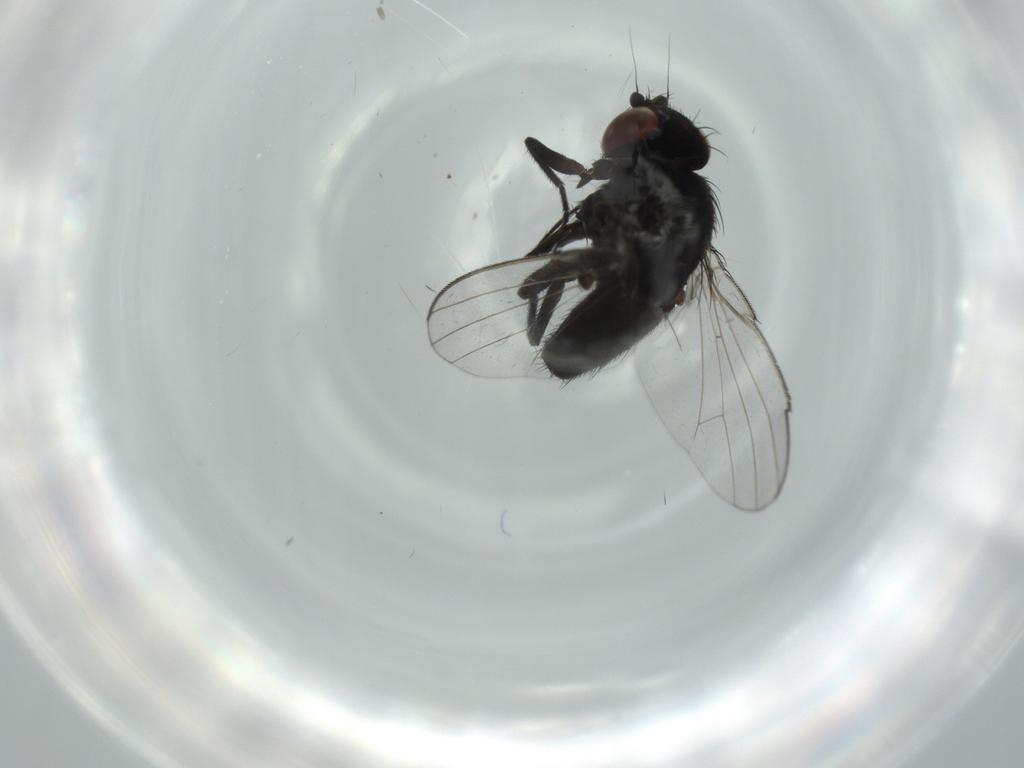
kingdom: Animalia
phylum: Arthropoda
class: Insecta
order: Diptera
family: Milichiidae
